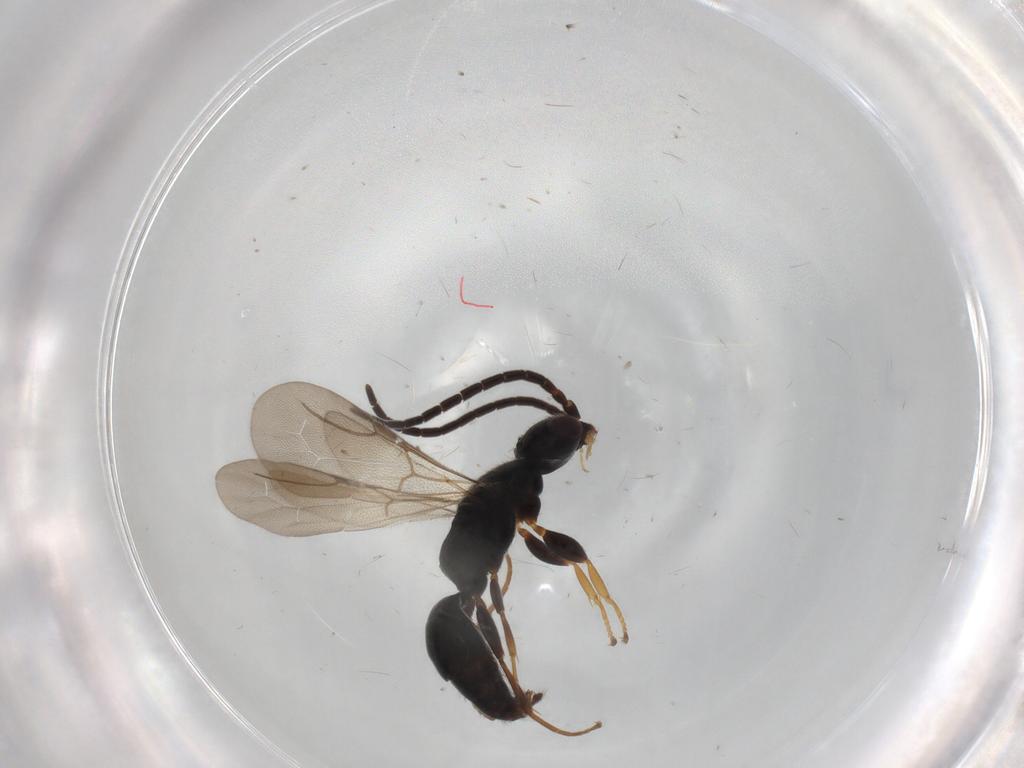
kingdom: Animalia
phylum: Arthropoda
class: Insecta
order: Hymenoptera
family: Bethylidae
